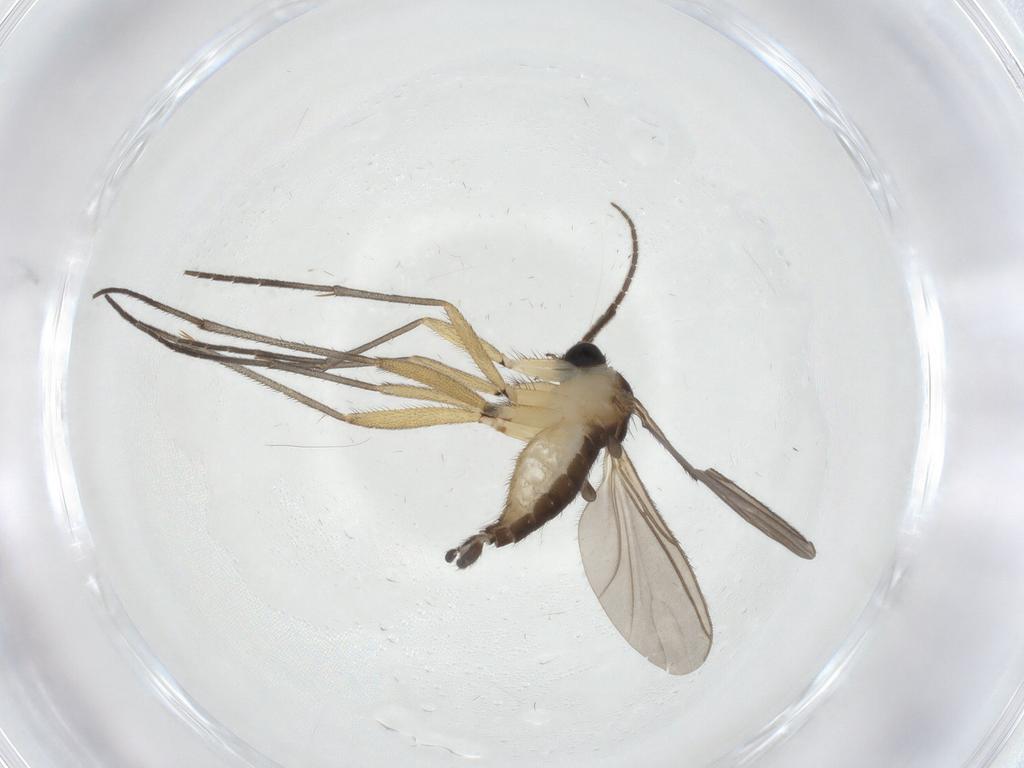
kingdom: Animalia
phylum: Arthropoda
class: Insecta
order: Diptera
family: Sciaridae
